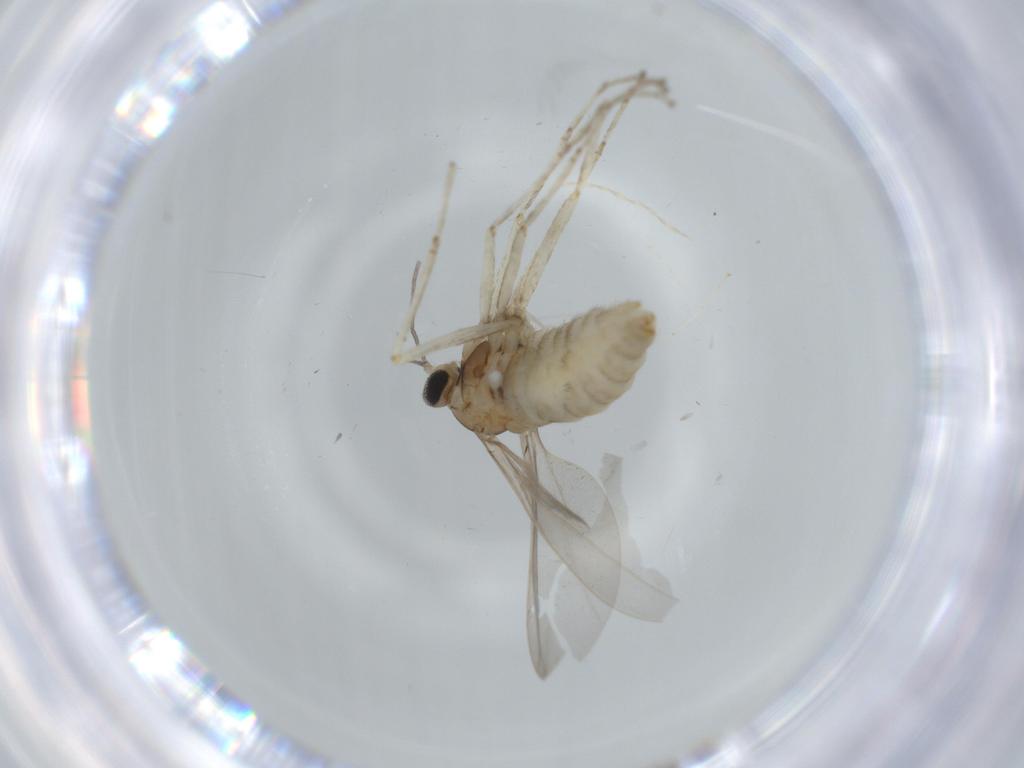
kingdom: Animalia
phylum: Arthropoda
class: Insecta
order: Diptera
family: Cecidomyiidae
